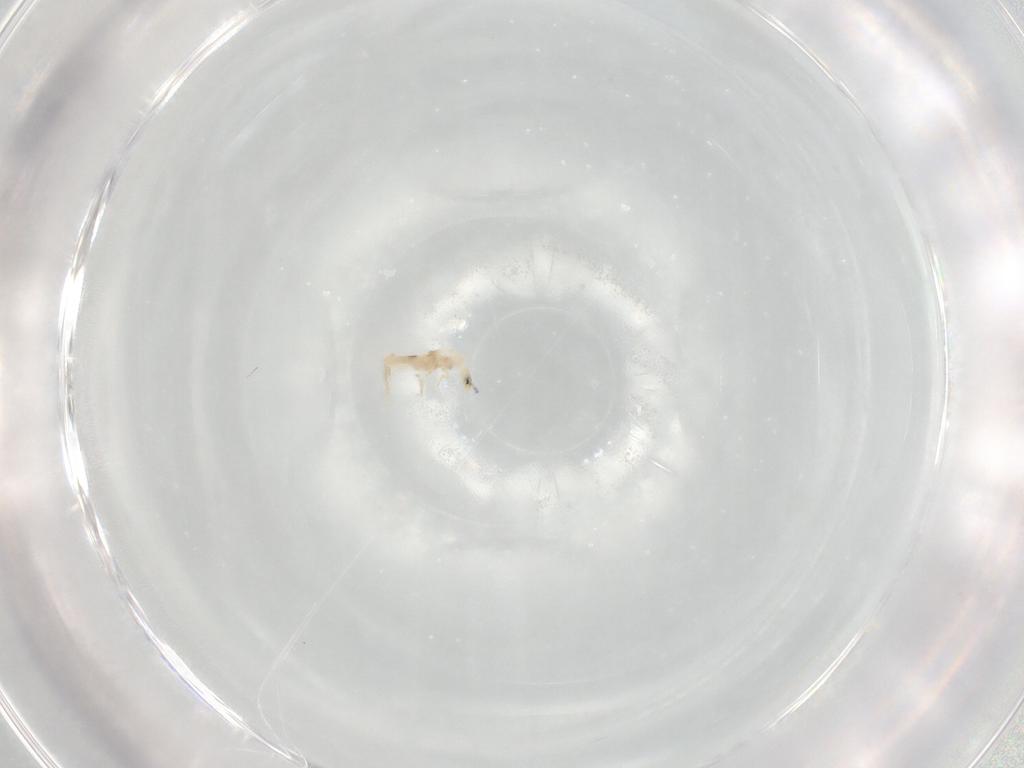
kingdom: Animalia
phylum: Arthropoda
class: Collembola
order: Entomobryomorpha
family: Entomobryidae
